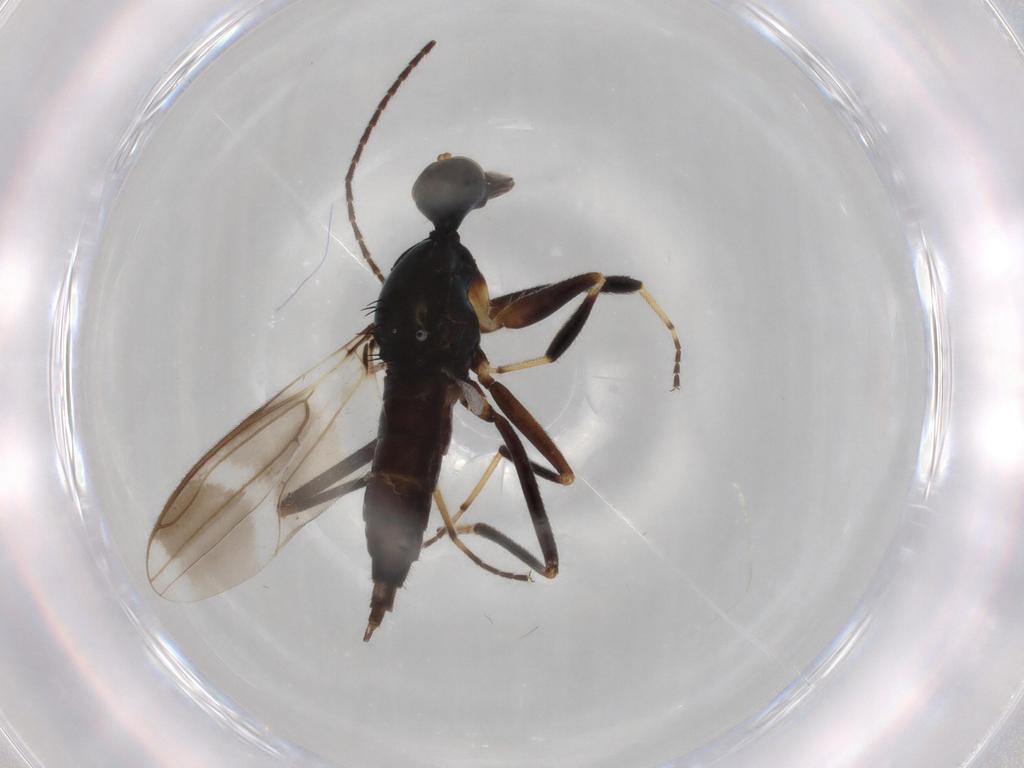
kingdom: Animalia
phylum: Arthropoda
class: Insecta
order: Diptera
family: Hybotidae
